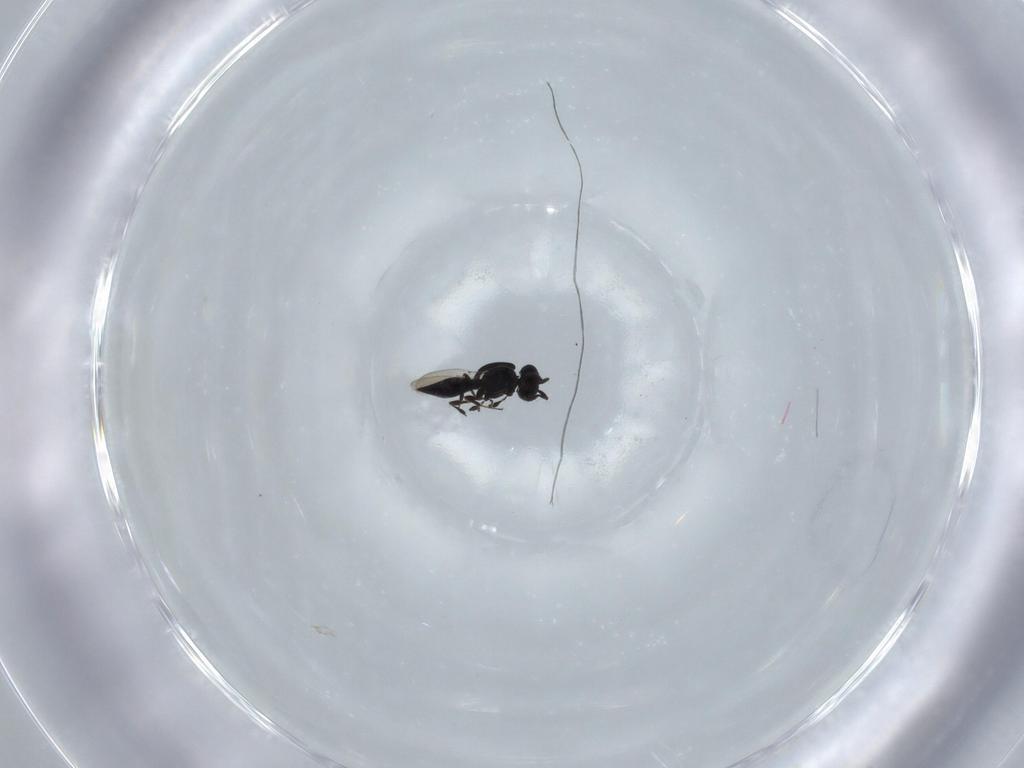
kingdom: Animalia
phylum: Arthropoda
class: Insecta
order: Hymenoptera
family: Platygastridae
